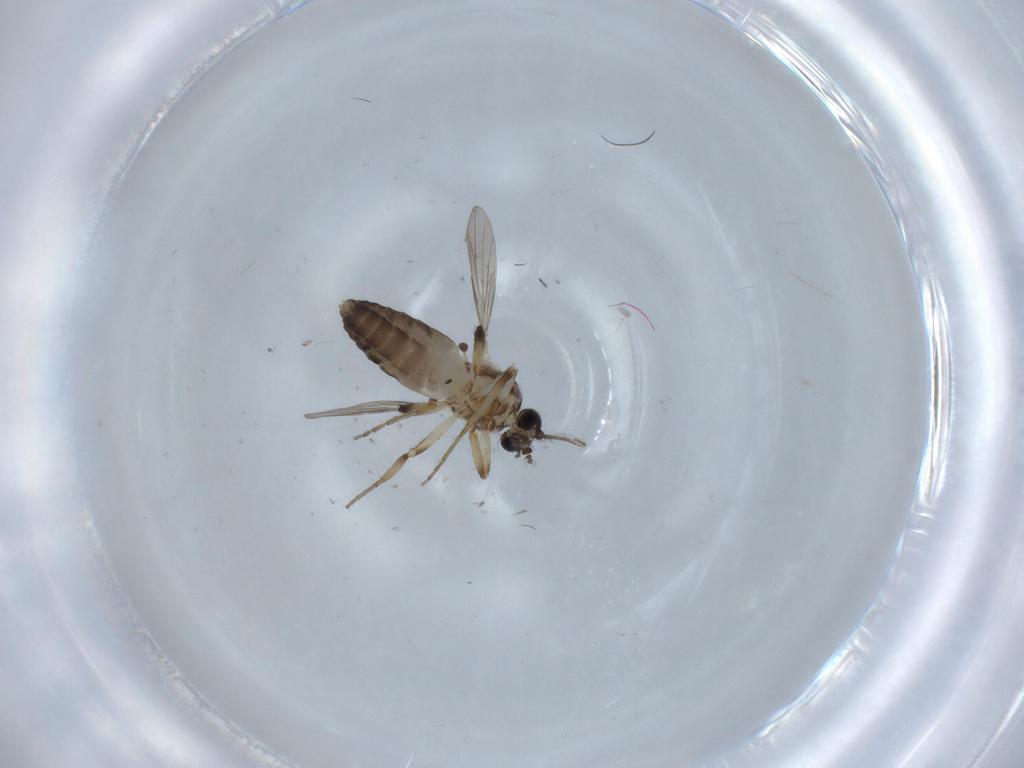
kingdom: Animalia
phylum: Arthropoda
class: Insecta
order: Diptera
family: Ceratopogonidae
